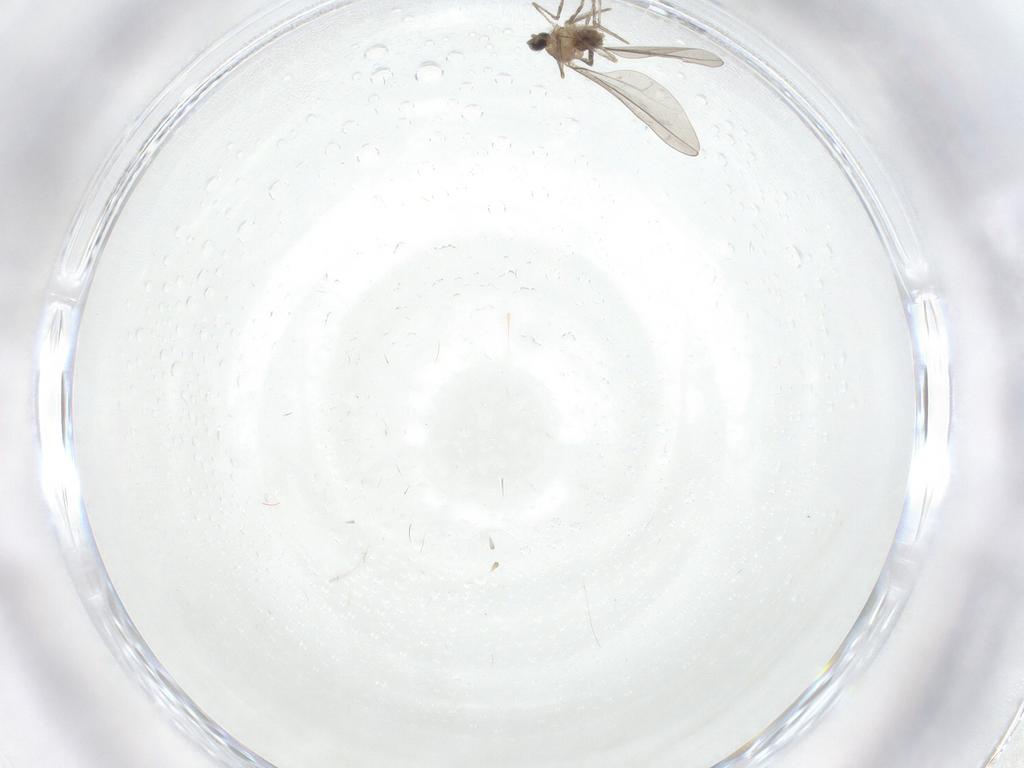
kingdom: Animalia
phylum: Arthropoda
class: Insecta
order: Diptera
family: Psychodidae
